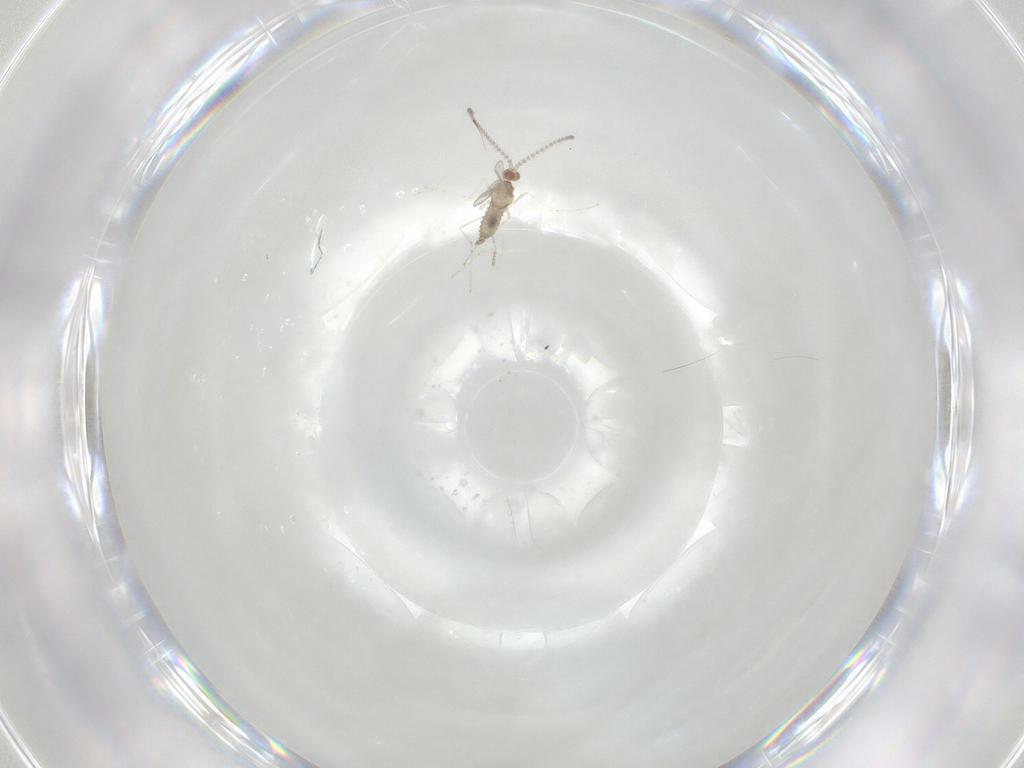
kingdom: Animalia
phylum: Arthropoda
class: Insecta
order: Diptera
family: Cecidomyiidae
